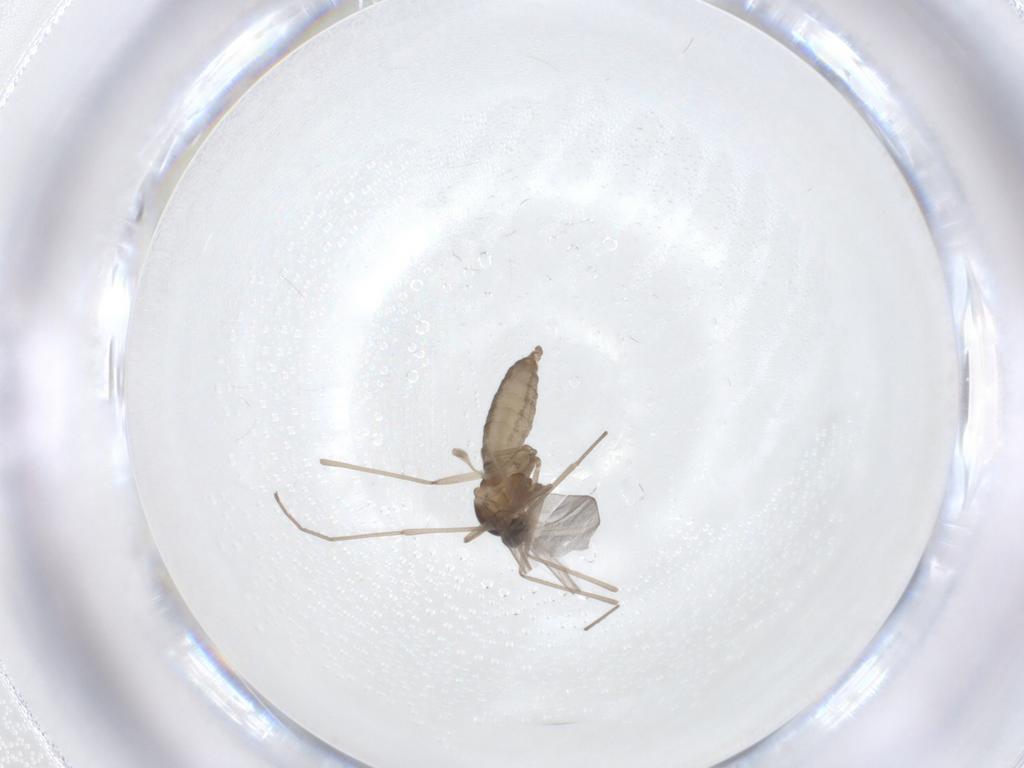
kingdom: Animalia
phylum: Arthropoda
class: Insecta
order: Diptera
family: Cecidomyiidae
